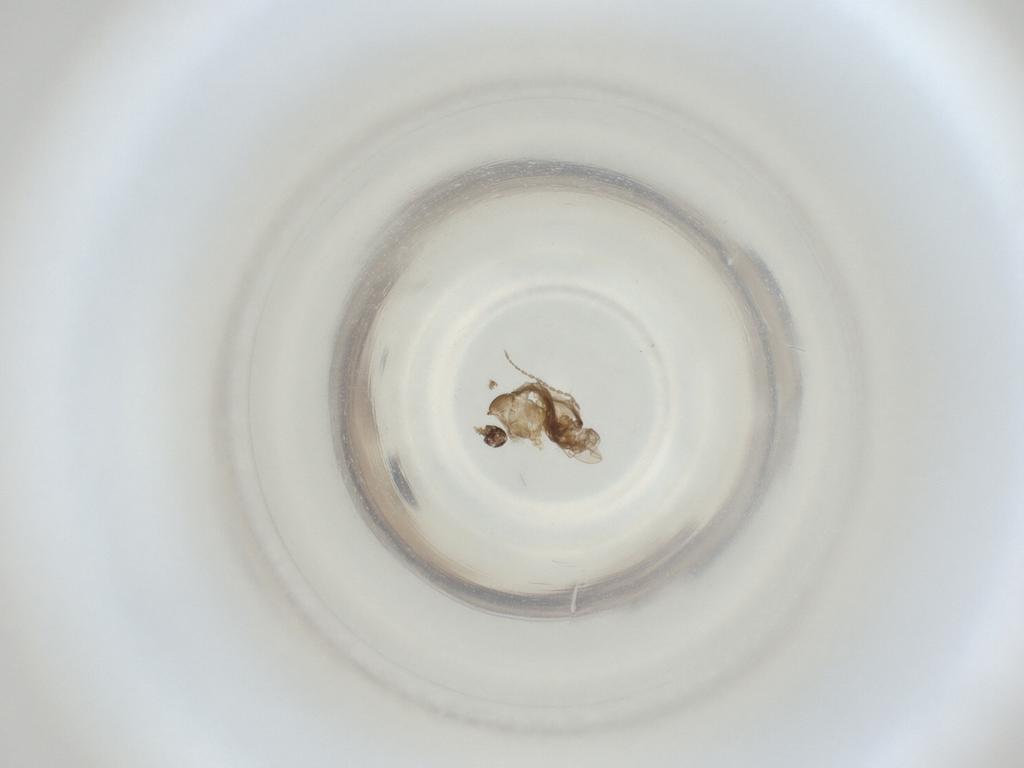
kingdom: Animalia
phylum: Arthropoda
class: Insecta
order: Diptera
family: Cecidomyiidae
